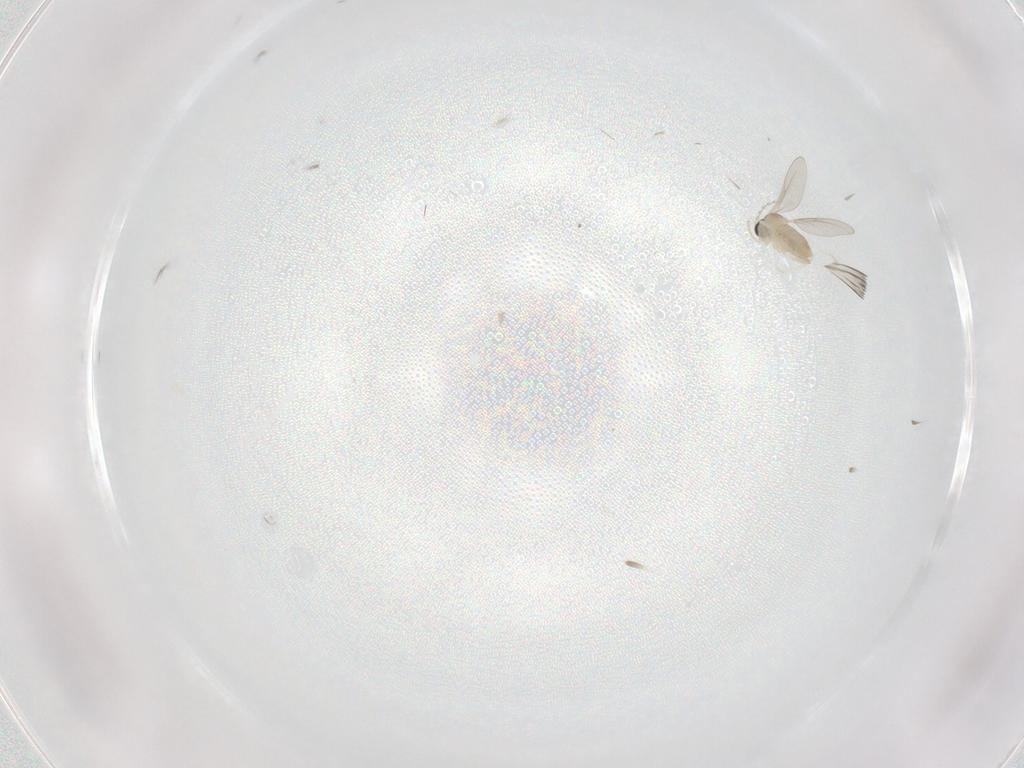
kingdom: Animalia
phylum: Arthropoda
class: Insecta
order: Diptera
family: Cecidomyiidae
